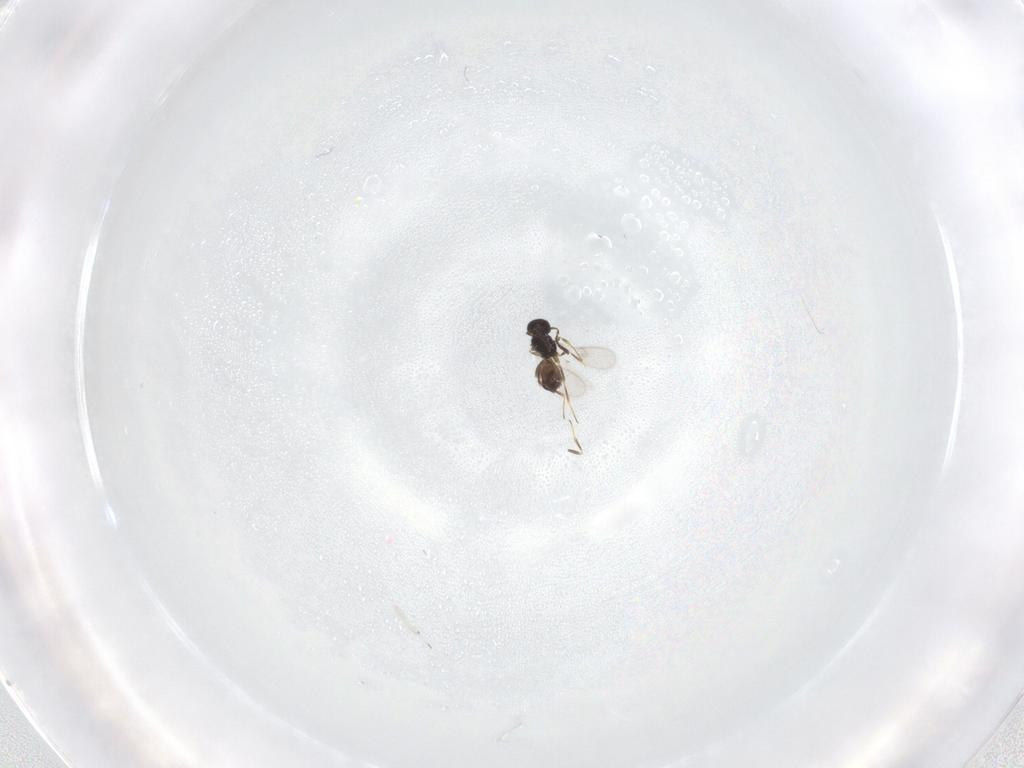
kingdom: Animalia
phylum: Arthropoda
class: Insecta
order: Hymenoptera
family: Scelionidae
